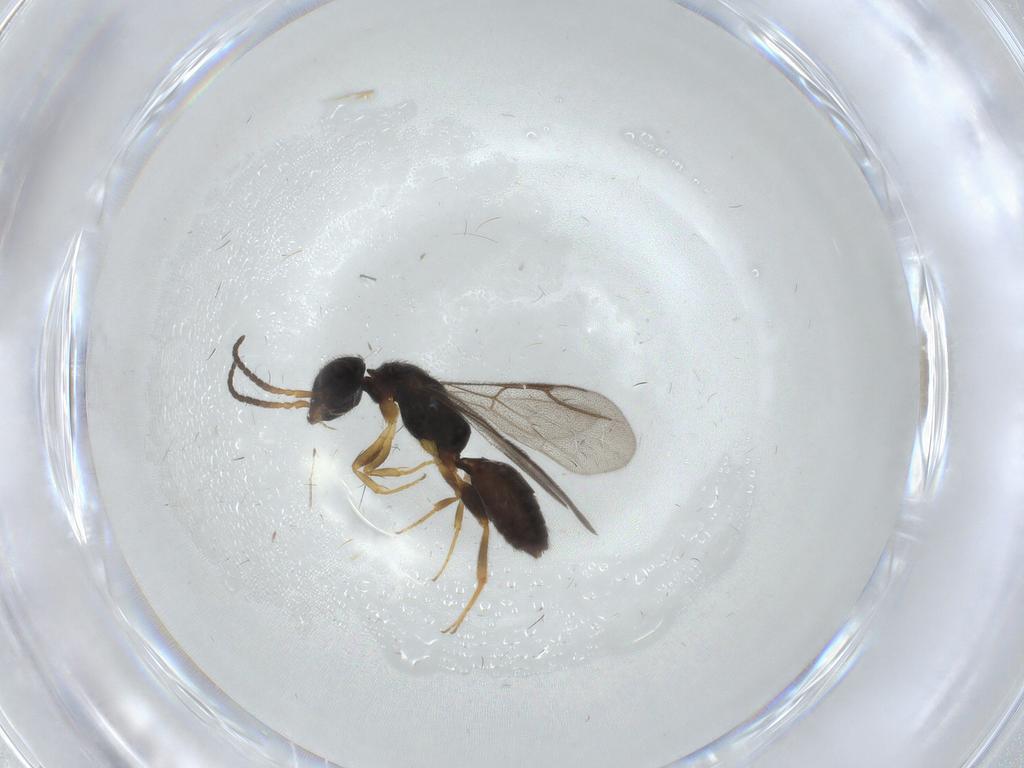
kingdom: Animalia
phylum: Arthropoda
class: Insecta
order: Hymenoptera
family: Bethylidae
